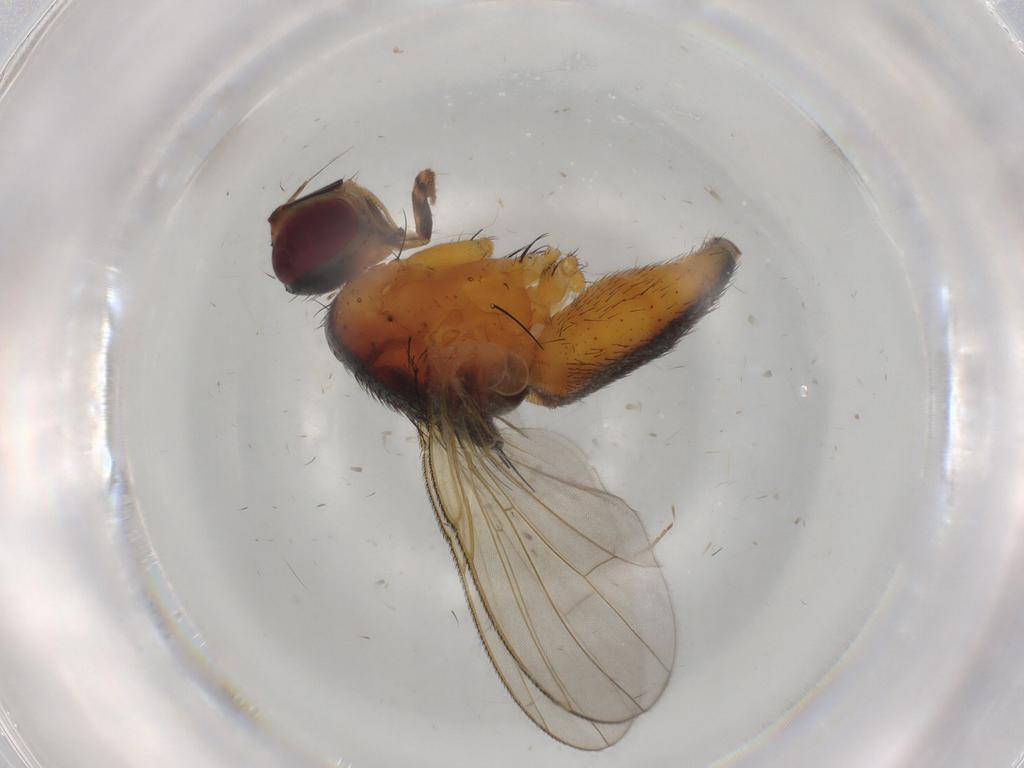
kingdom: Animalia
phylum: Arthropoda
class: Insecta
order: Diptera
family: Muscidae
